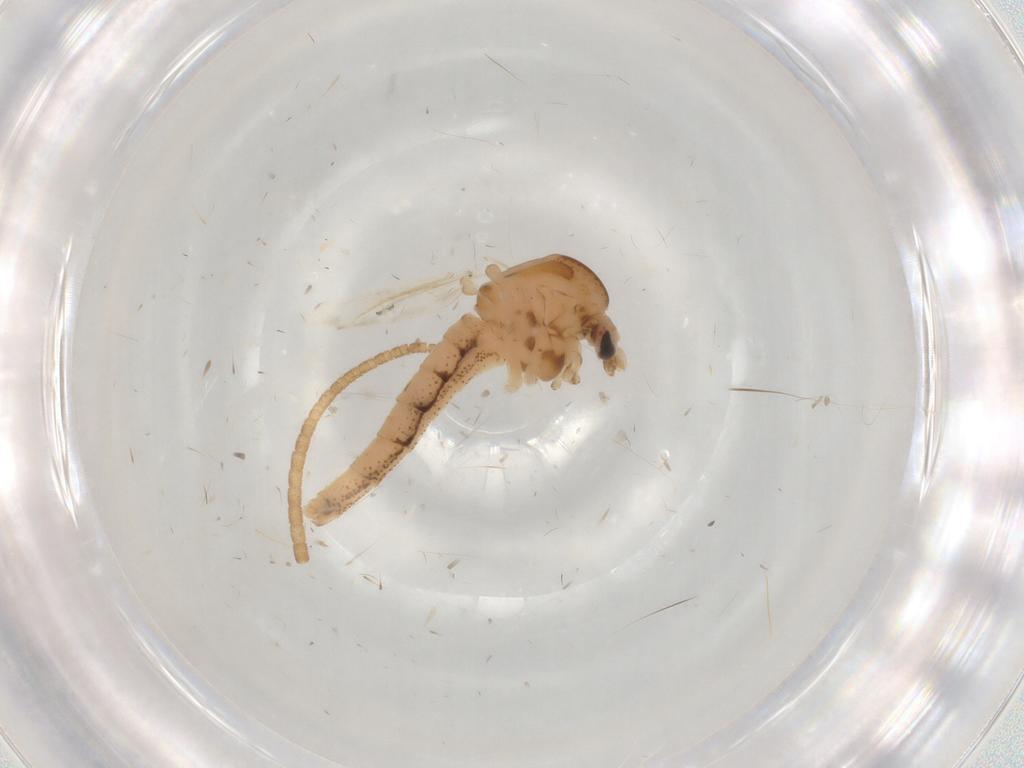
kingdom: Animalia
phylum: Arthropoda
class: Insecta
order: Diptera
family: Chaoboridae
